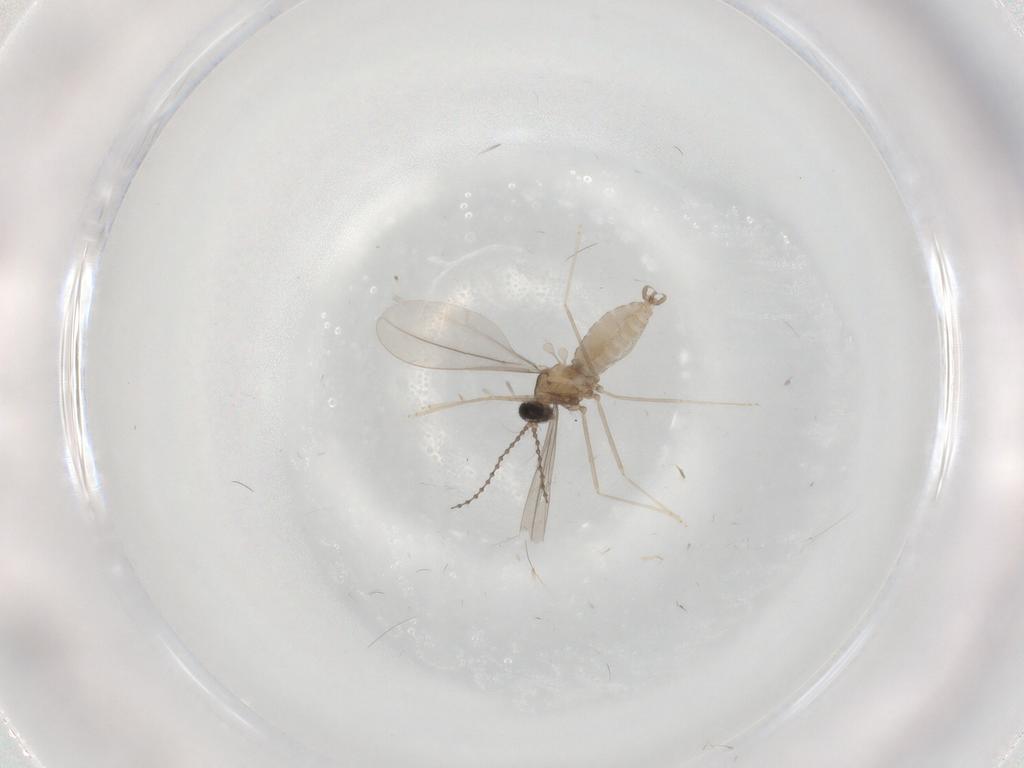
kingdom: Animalia
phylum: Arthropoda
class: Insecta
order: Diptera
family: Cecidomyiidae
